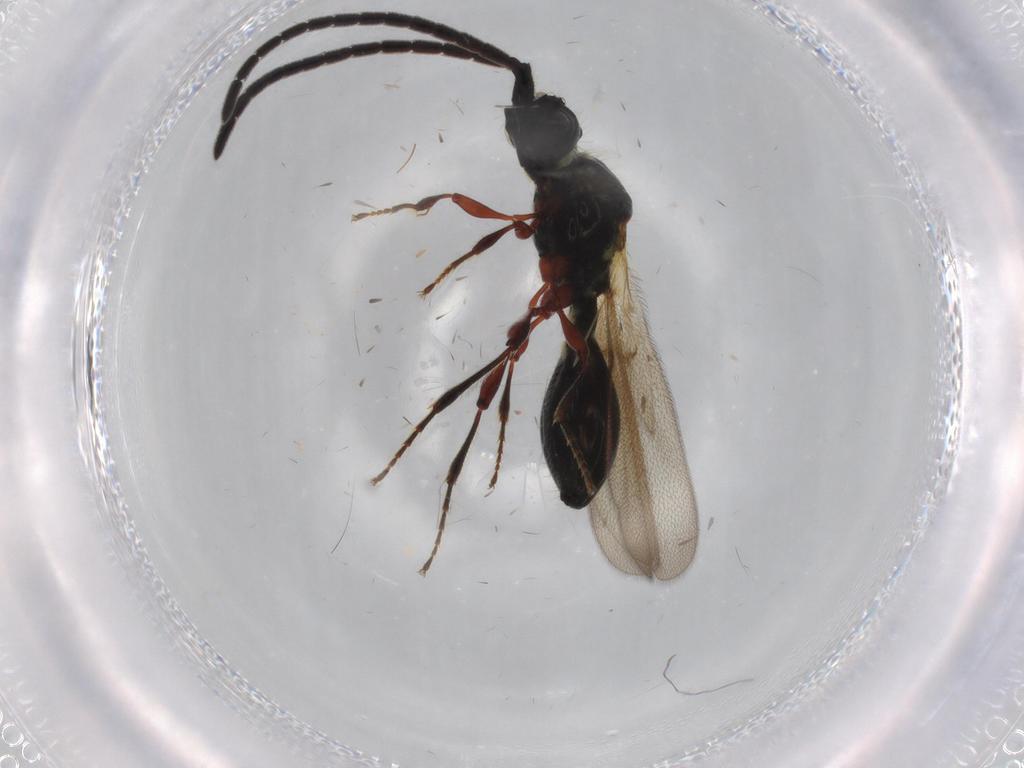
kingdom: Animalia
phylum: Arthropoda
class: Insecta
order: Hymenoptera
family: Diapriidae
